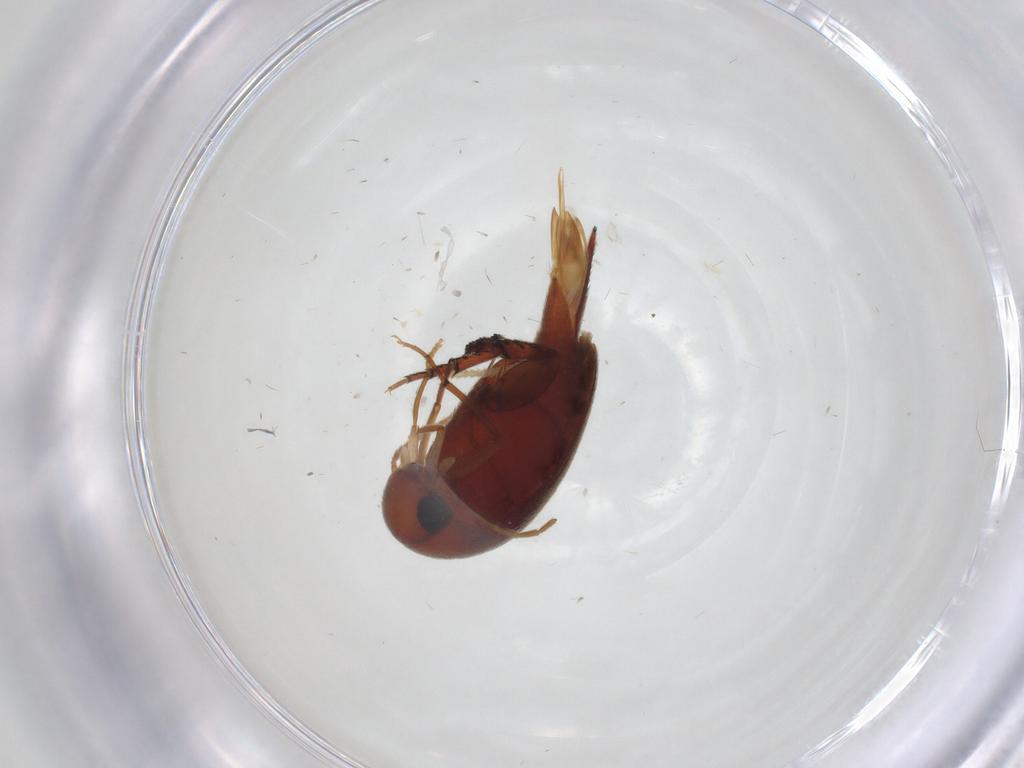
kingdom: Animalia
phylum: Arthropoda
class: Insecta
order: Coleoptera
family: Mordellidae
